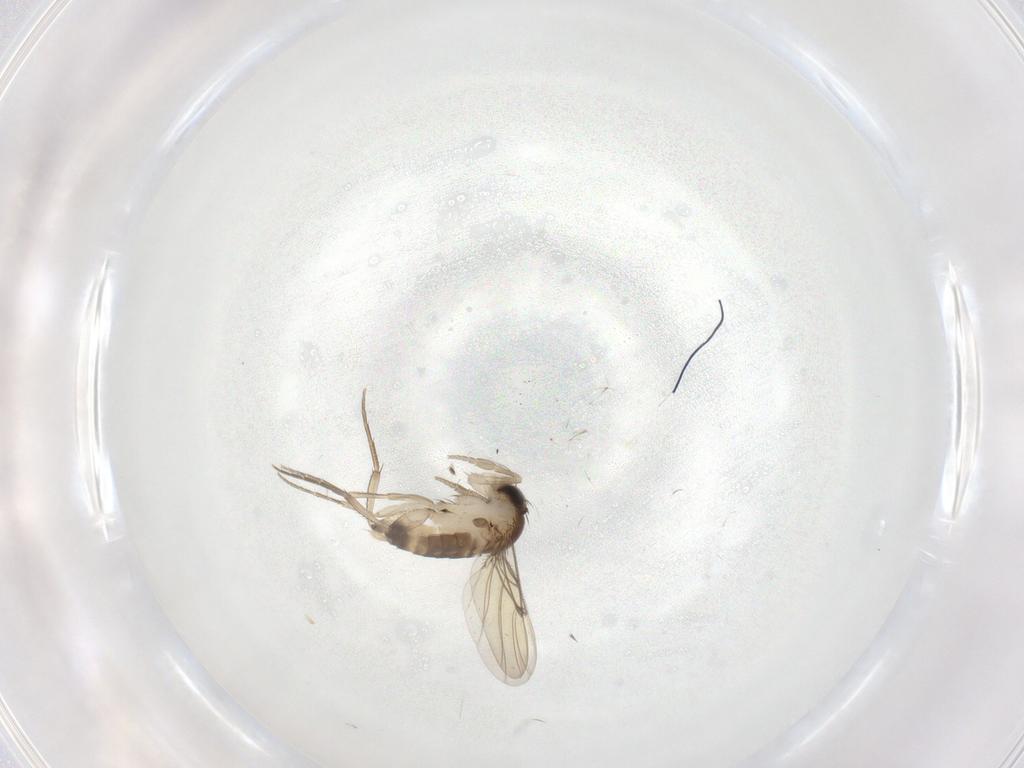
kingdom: Animalia
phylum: Arthropoda
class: Insecta
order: Diptera
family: Phoridae
